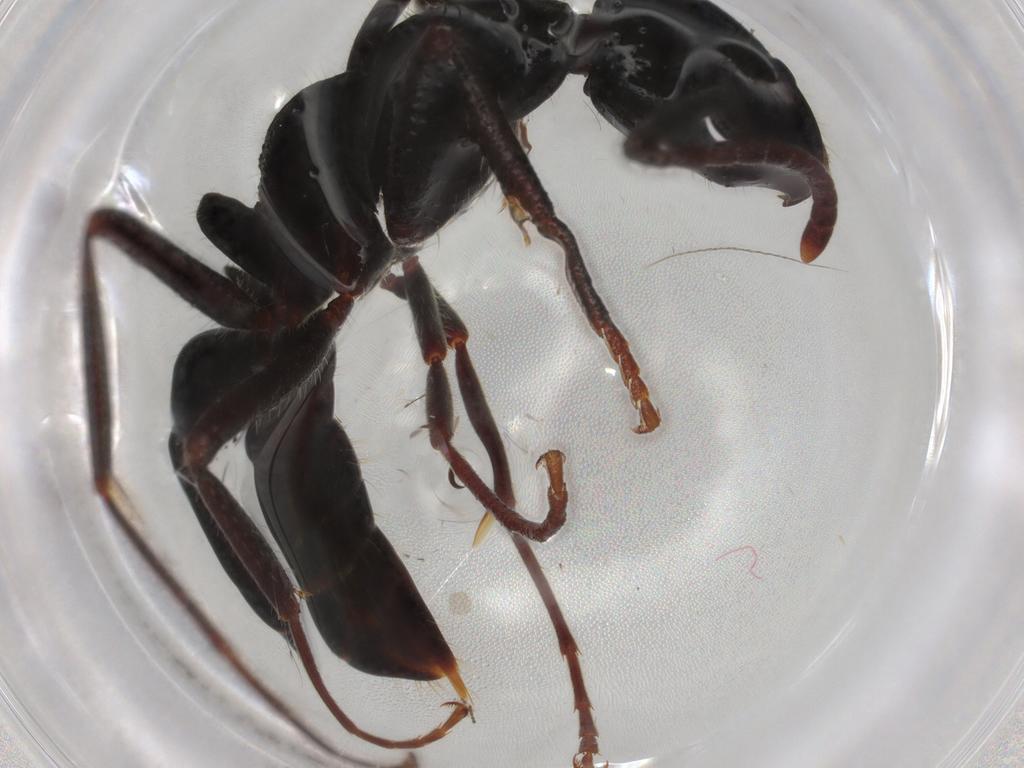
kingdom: Animalia
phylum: Arthropoda
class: Insecta
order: Hymenoptera
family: Formicidae
